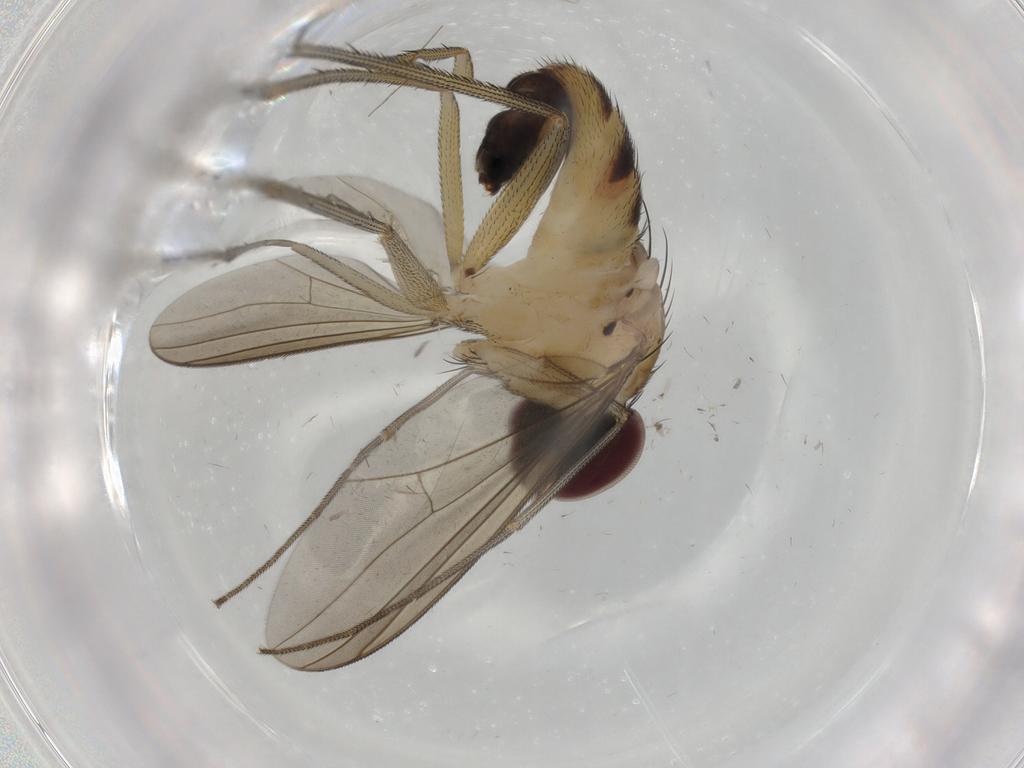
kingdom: Animalia
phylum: Arthropoda
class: Insecta
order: Diptera
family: Dolichopodidae
